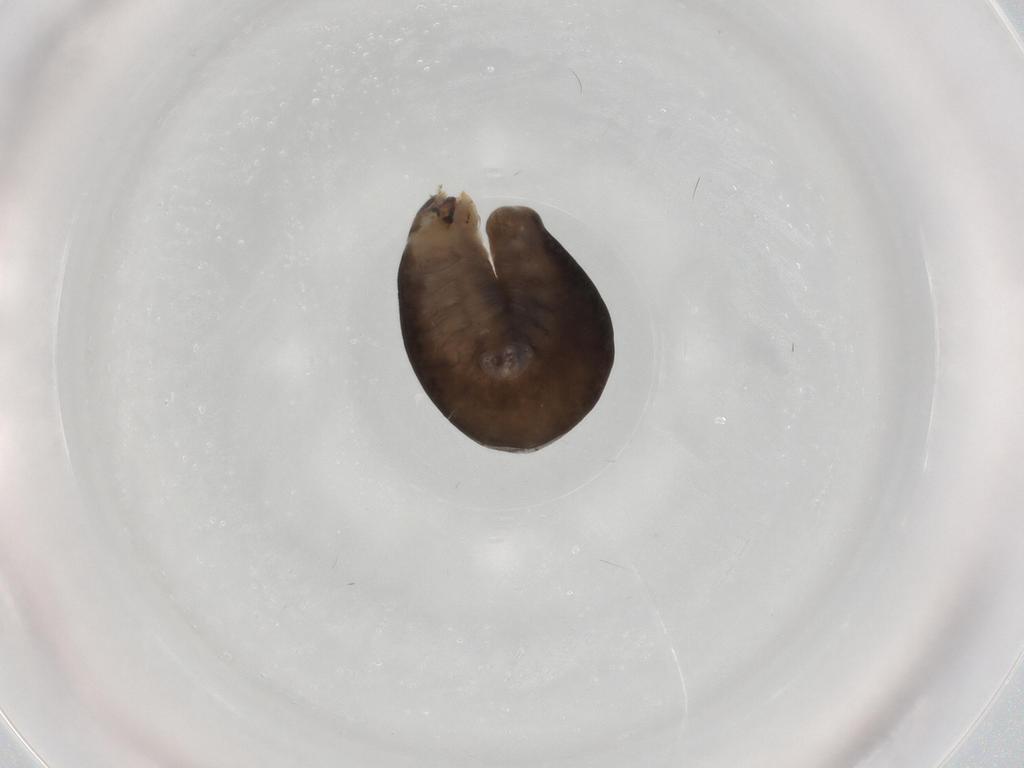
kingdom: Animalia
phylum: Arthropoda
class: Insecta
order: Hymenoptera
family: Dryinidae
